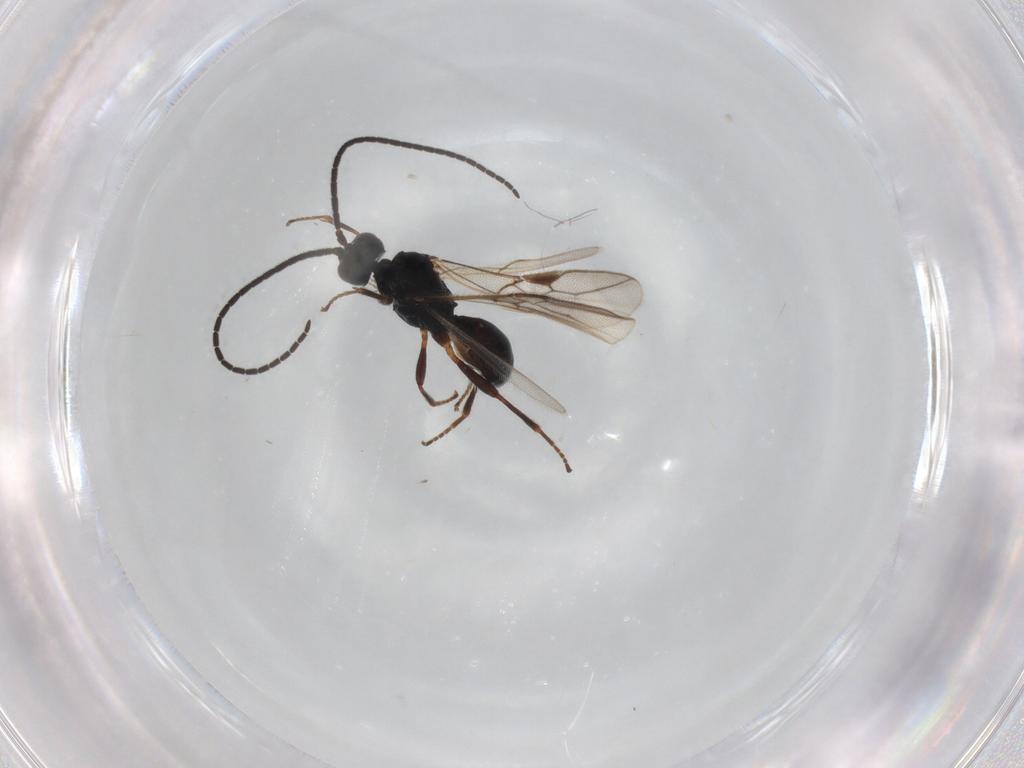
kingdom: Animalia
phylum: Arthropoda
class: Insecta
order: Hymenoptera
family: Braconidae
